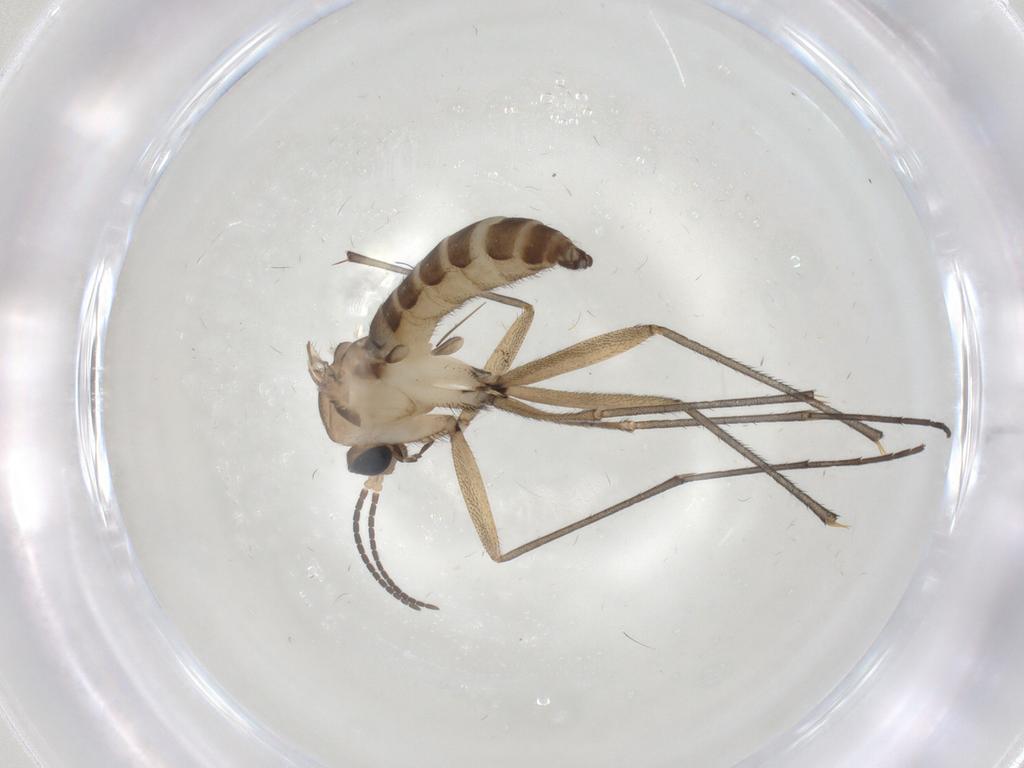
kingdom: Animalia
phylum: Arthropoda
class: Insecta
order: Diptera
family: Sciaridae
